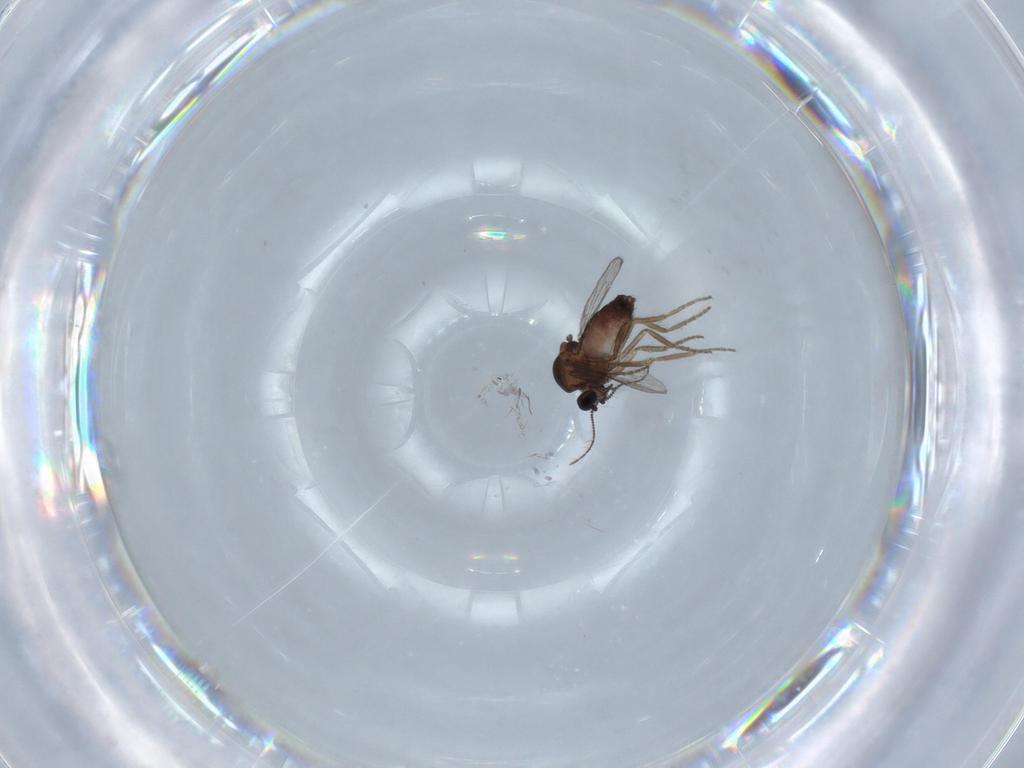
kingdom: Animalia
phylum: Arthropoda
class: Insecta
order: Diptera
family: Ceratopogonidae
